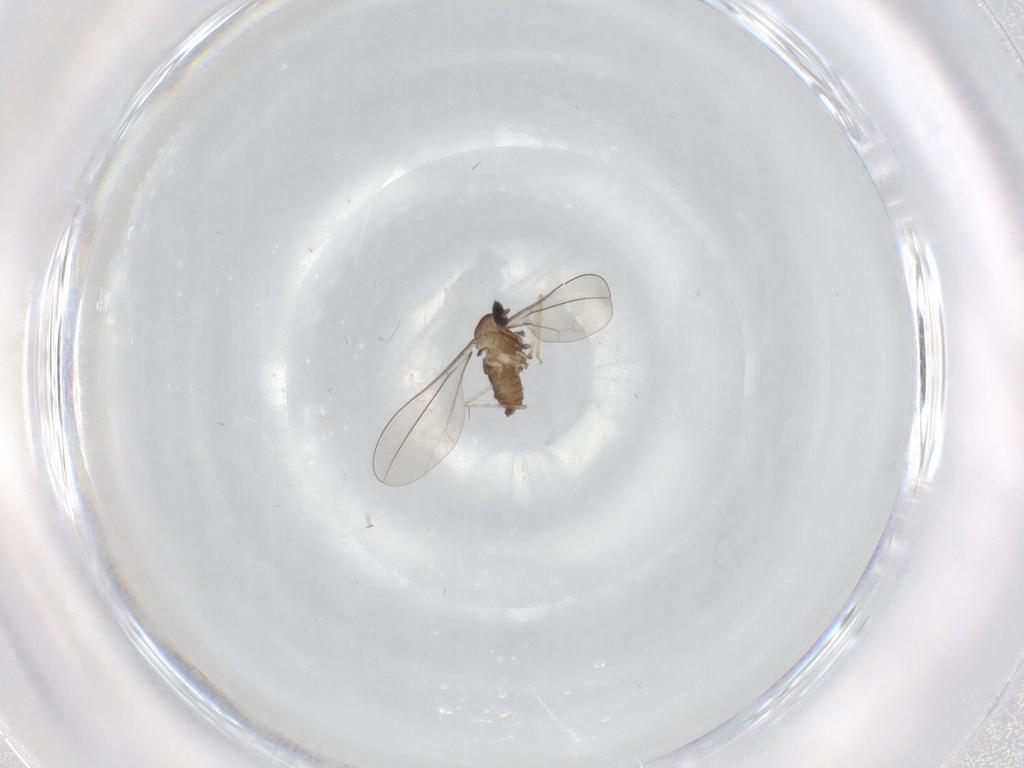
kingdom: Animalia
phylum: Arthropoda
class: Insecta
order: Diptera
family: Cecidomyiidae
